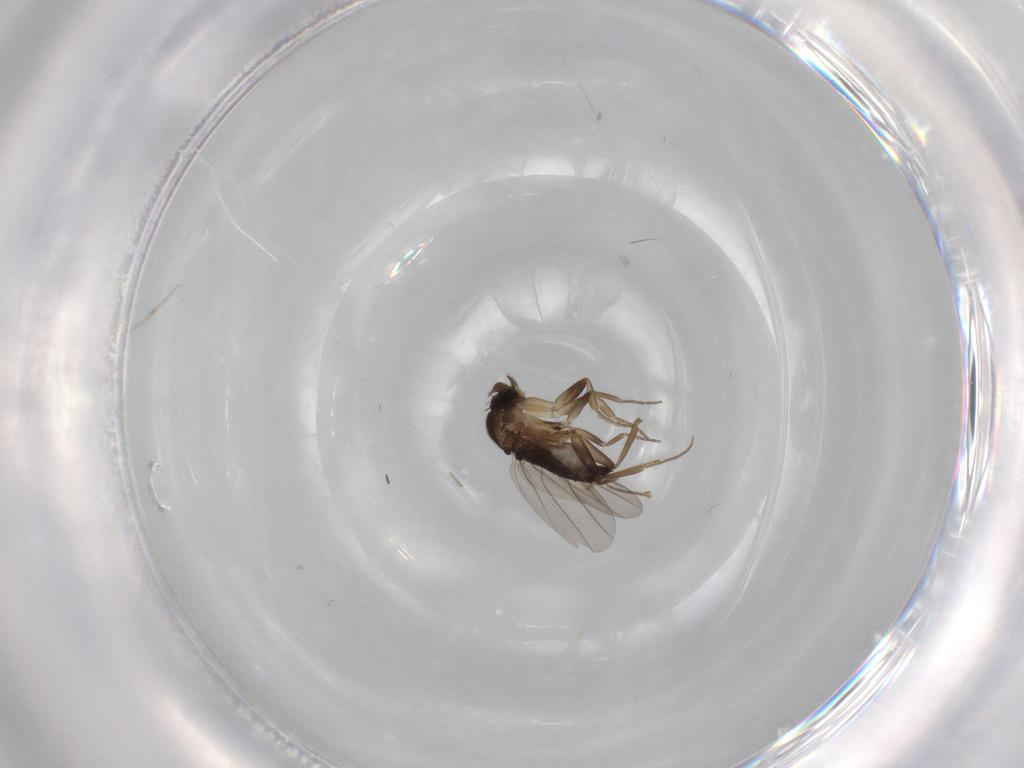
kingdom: Animalia
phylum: Arthropoda
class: Insecta
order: Diptera
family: Phoridae
